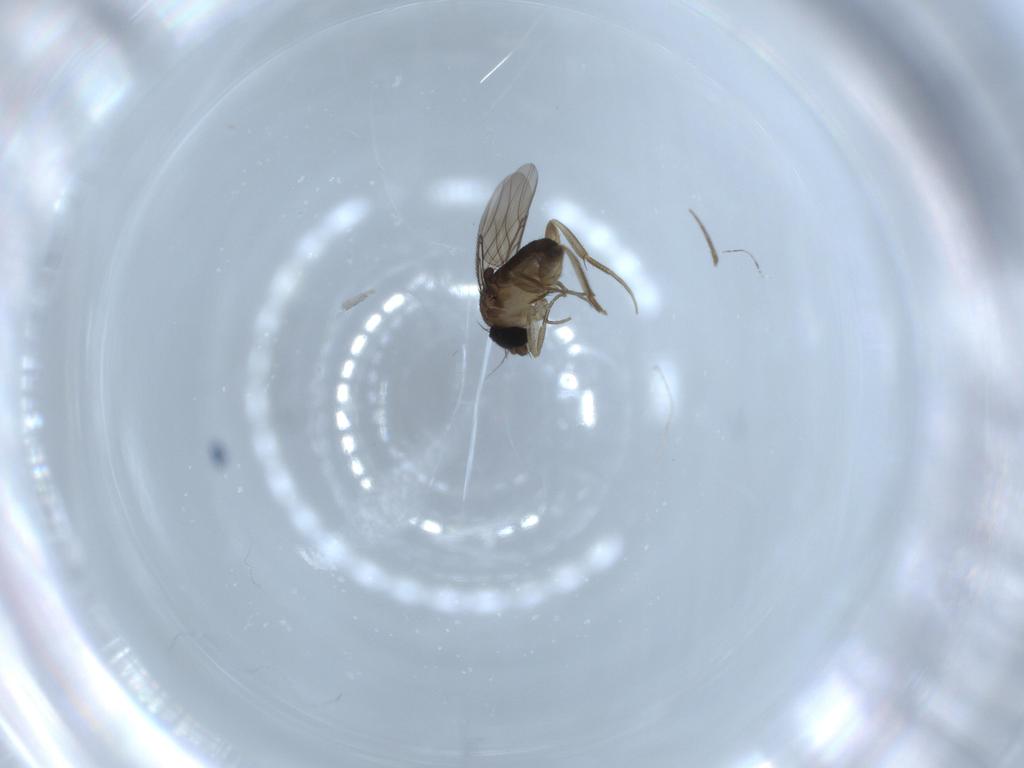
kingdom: Animalia
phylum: Arthropoda
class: Insecta
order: Diptera
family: Phoridae
